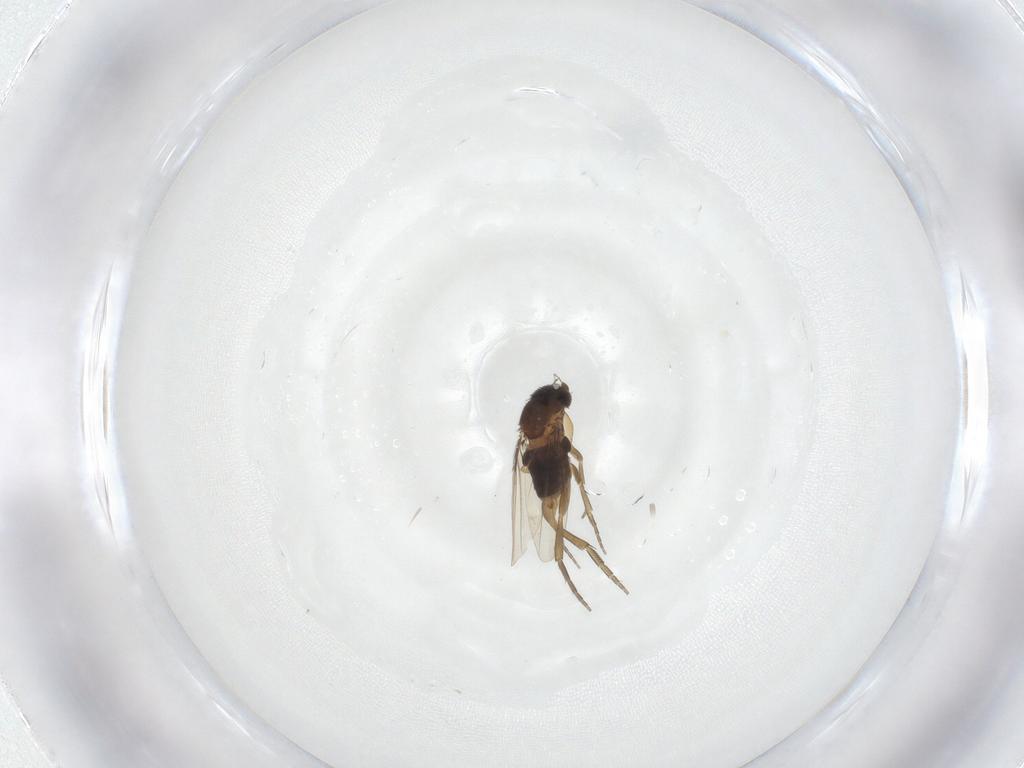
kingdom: Animalia
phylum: Arthropoda
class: Insecta
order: Diptera
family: Phoridae
